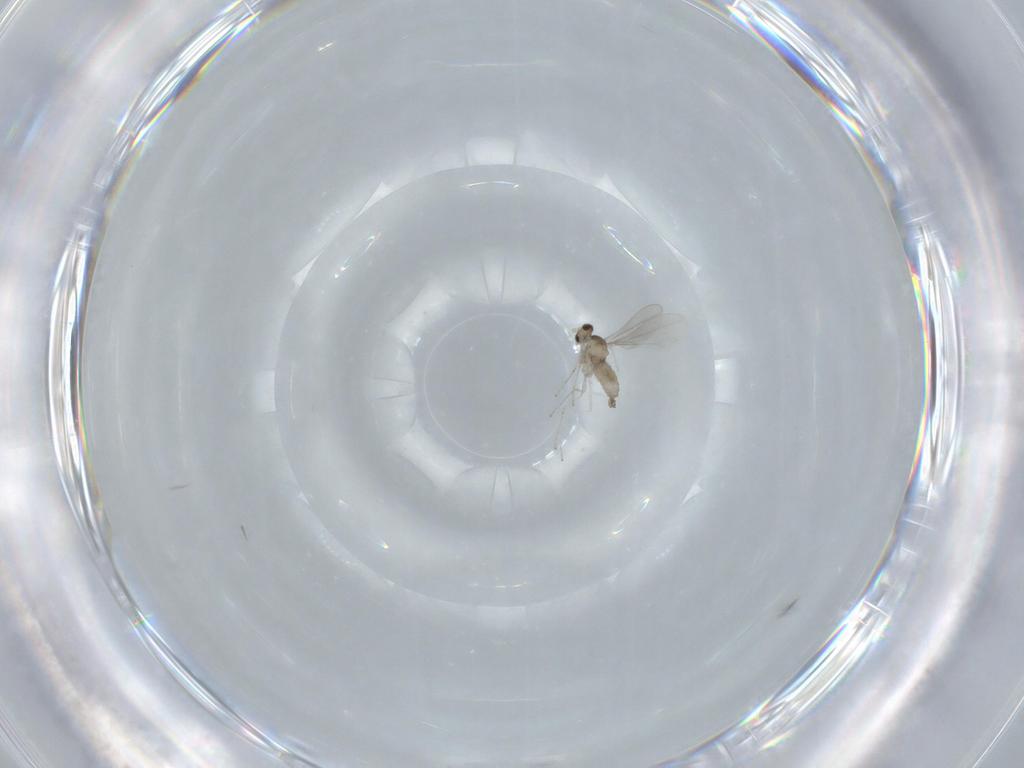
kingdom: Animalia
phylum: Arthropoda
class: Insecta
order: Diptera
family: Cecidomyiidae
